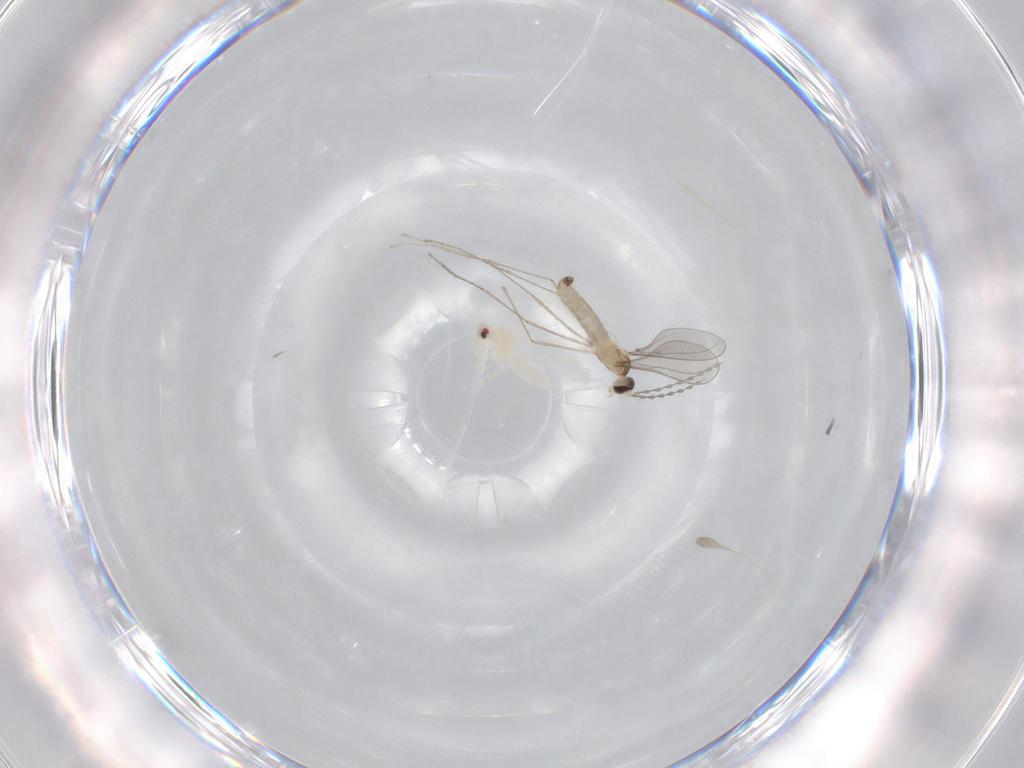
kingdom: Animalia
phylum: Arthropoda
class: Insecta
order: Diptera
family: Cecidomyiidae
